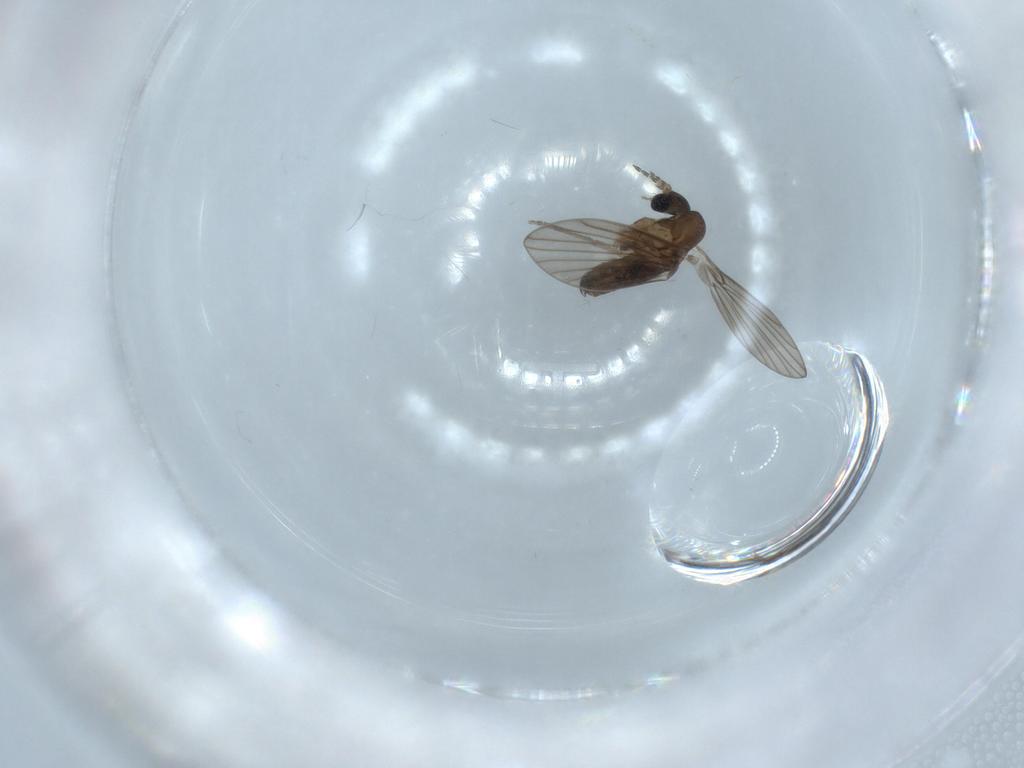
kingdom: Animalia
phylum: Arthropoda
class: Insecta
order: Diptera
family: Psychodidae
